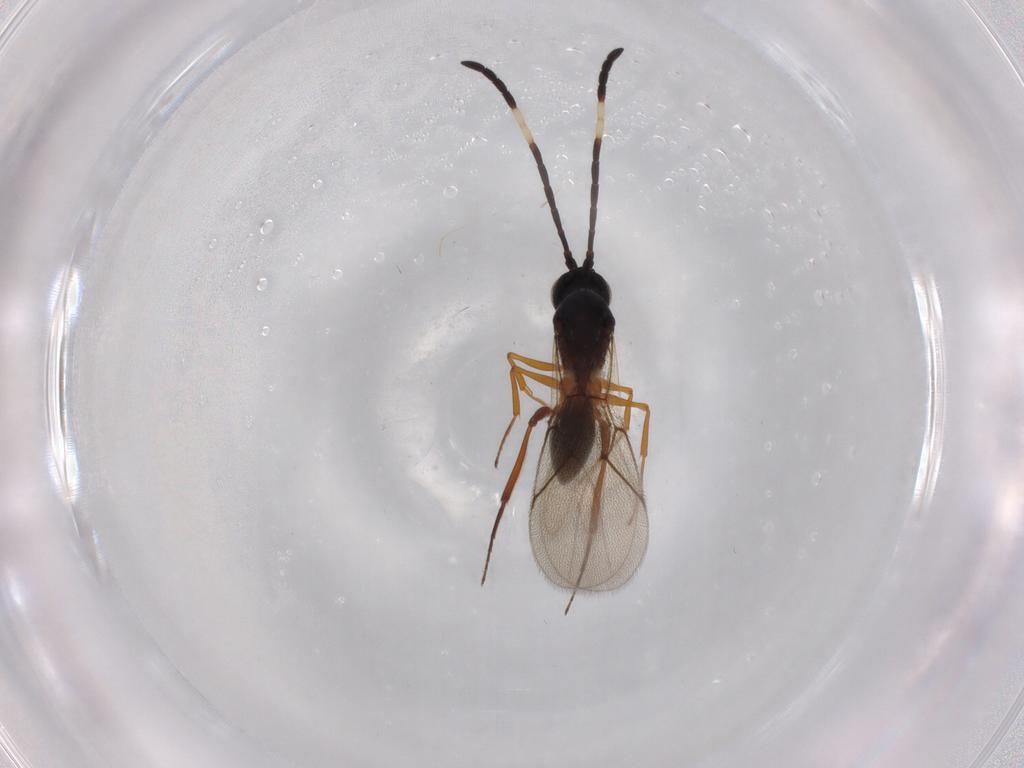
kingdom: Animalia
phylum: Arthropoda
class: Insecta
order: Hymenoptera
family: Figitidae
